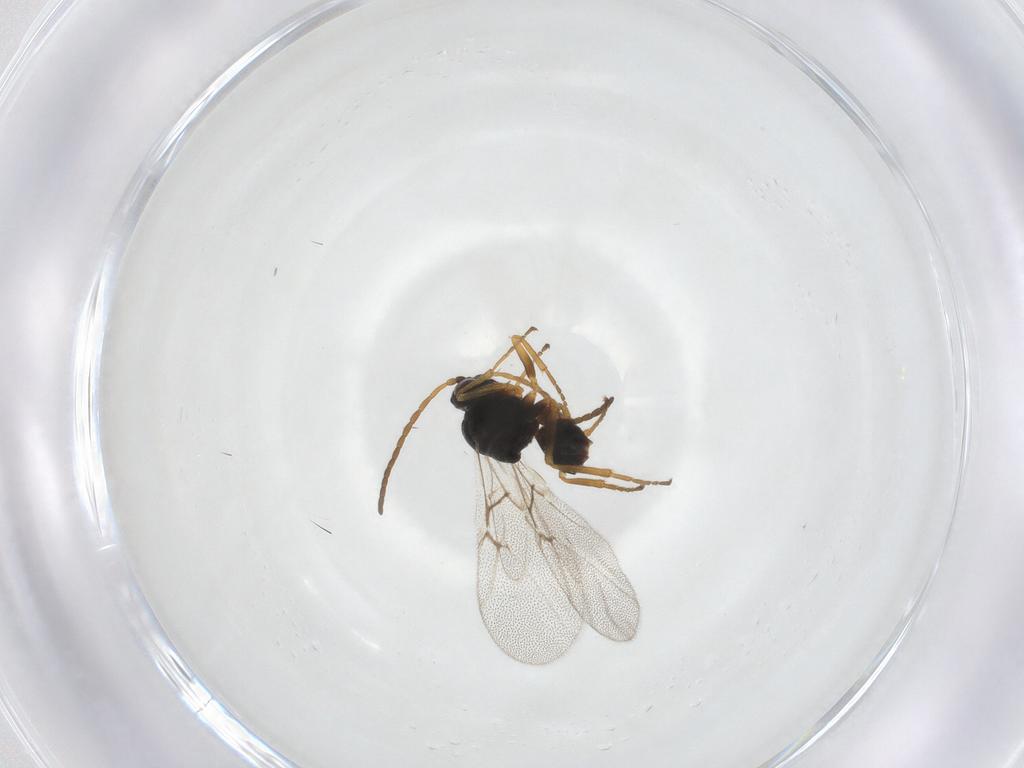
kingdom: Animalia
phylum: Arthropoda
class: Insecta
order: Hymenoptera
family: Cynipidae
